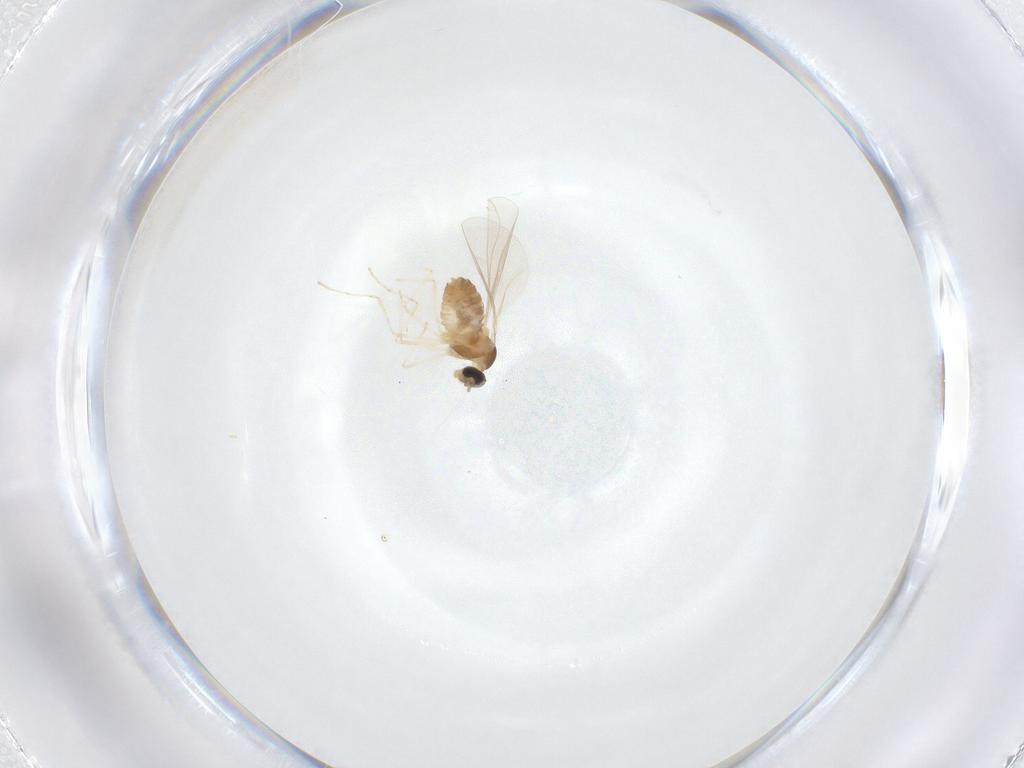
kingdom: Animalia
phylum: Arthropoda
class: Insecta
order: Diptera
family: Cecidomyiidae
